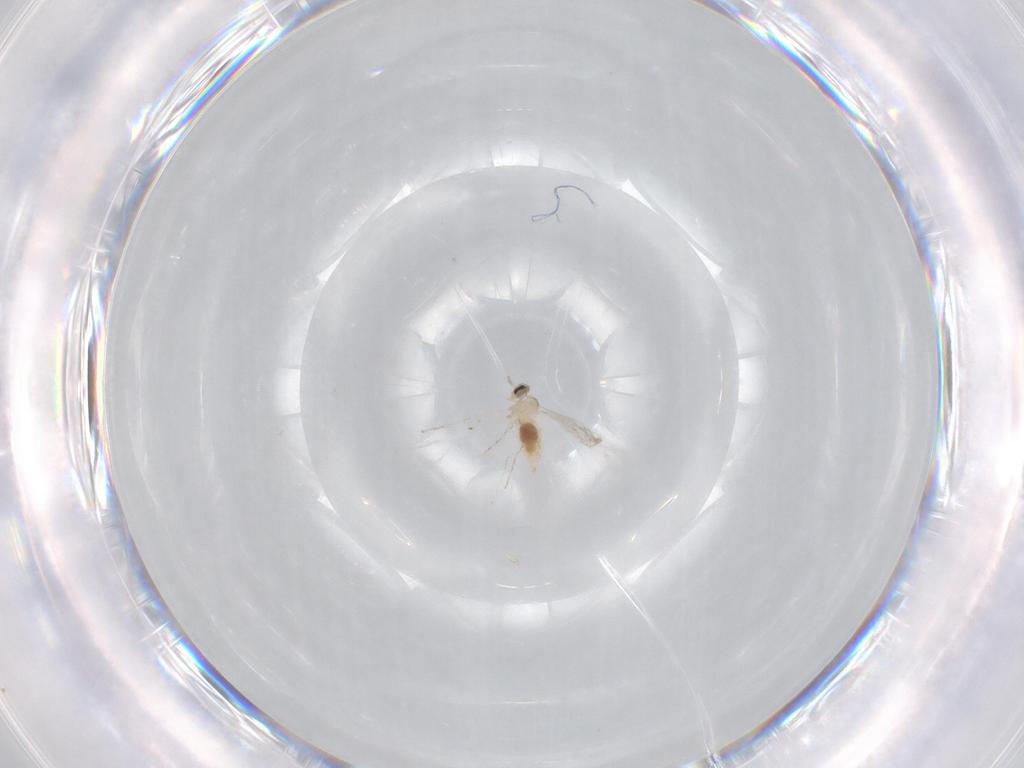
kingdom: Animalia
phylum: Arthropoda
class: Insecta
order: Diptera
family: Cecidomyiidae
